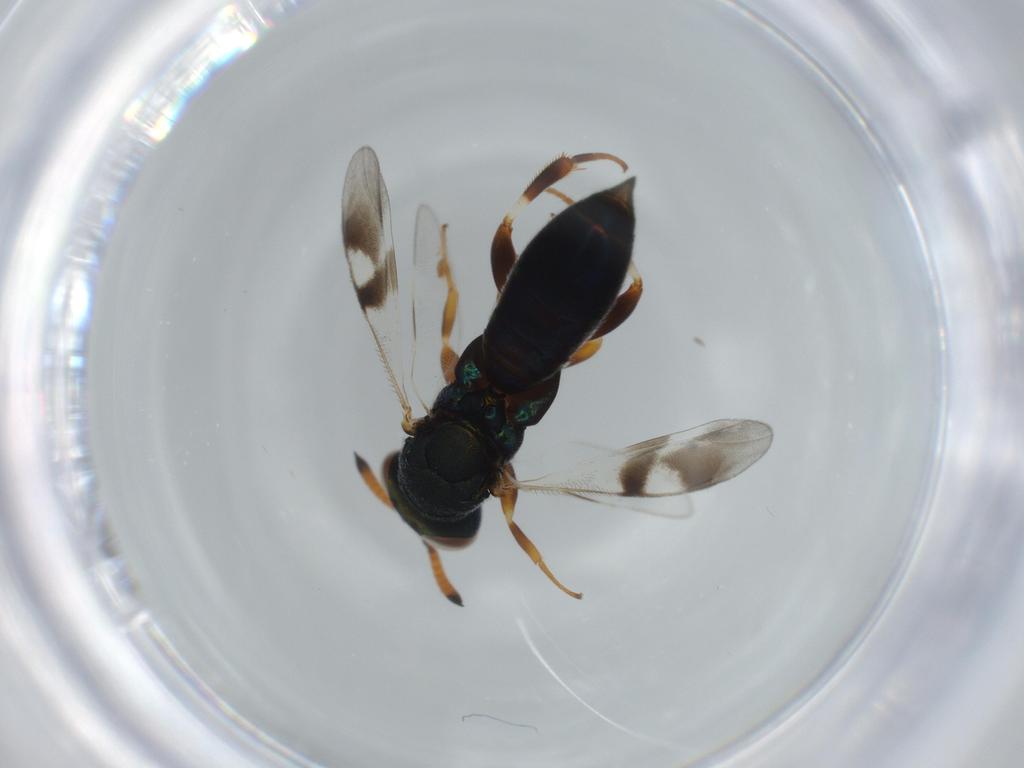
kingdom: Animalia
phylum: Arthropoda
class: Insecta
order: Hymenoptera
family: Cleonyminae
